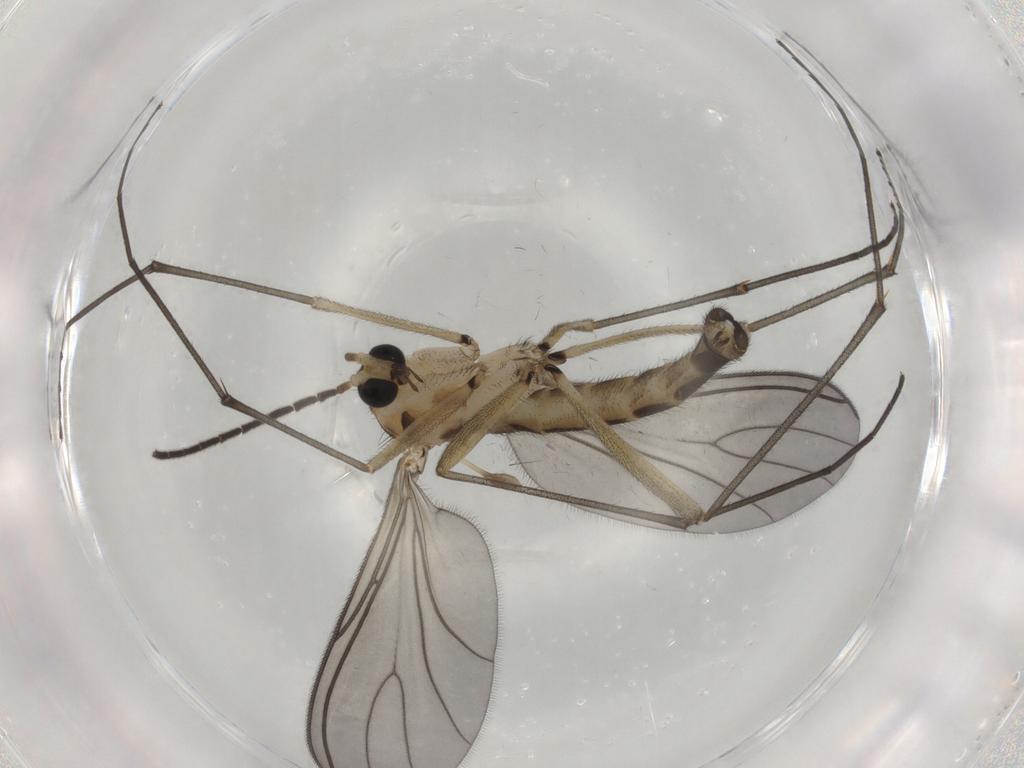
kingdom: Animalia
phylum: Arthropoda
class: Insecta
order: Diptera
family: Sciaridae
